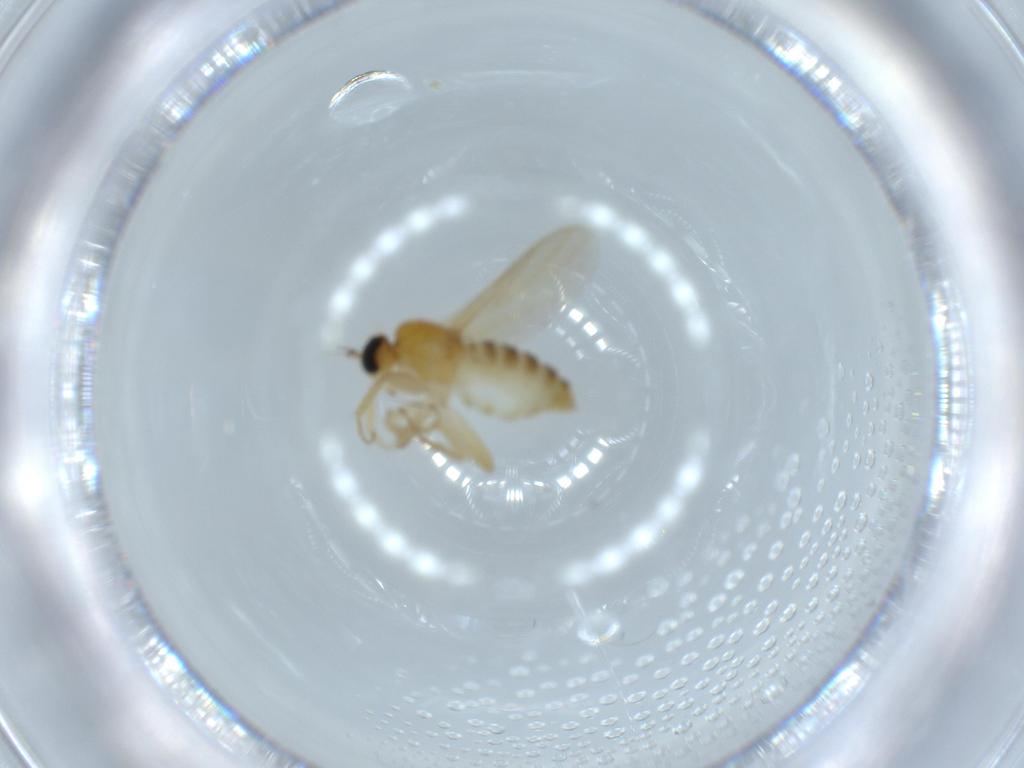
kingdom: Animalia
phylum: Arthropoda
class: Insecta
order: Diptera
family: Hybotidae
